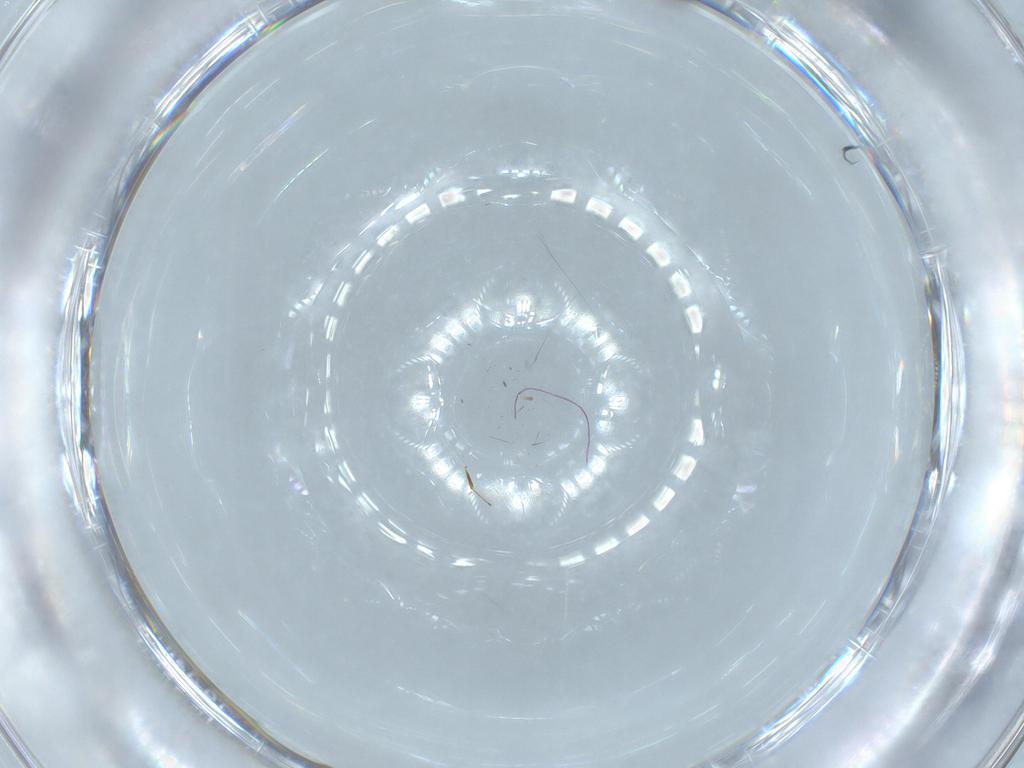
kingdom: Animalia
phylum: Arthropoda
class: Insecta
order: Hymenoptera
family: Scelionidae
